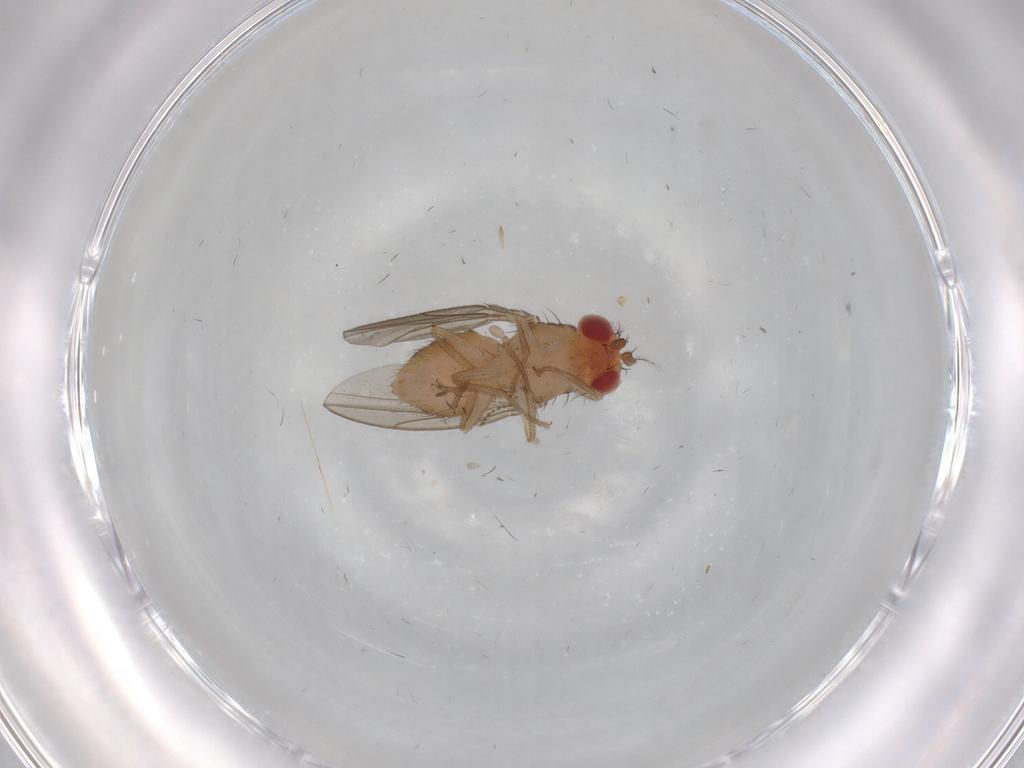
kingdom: Animalia
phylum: Arthropoda
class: Insecta
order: Diptera
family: Drosophilidae
